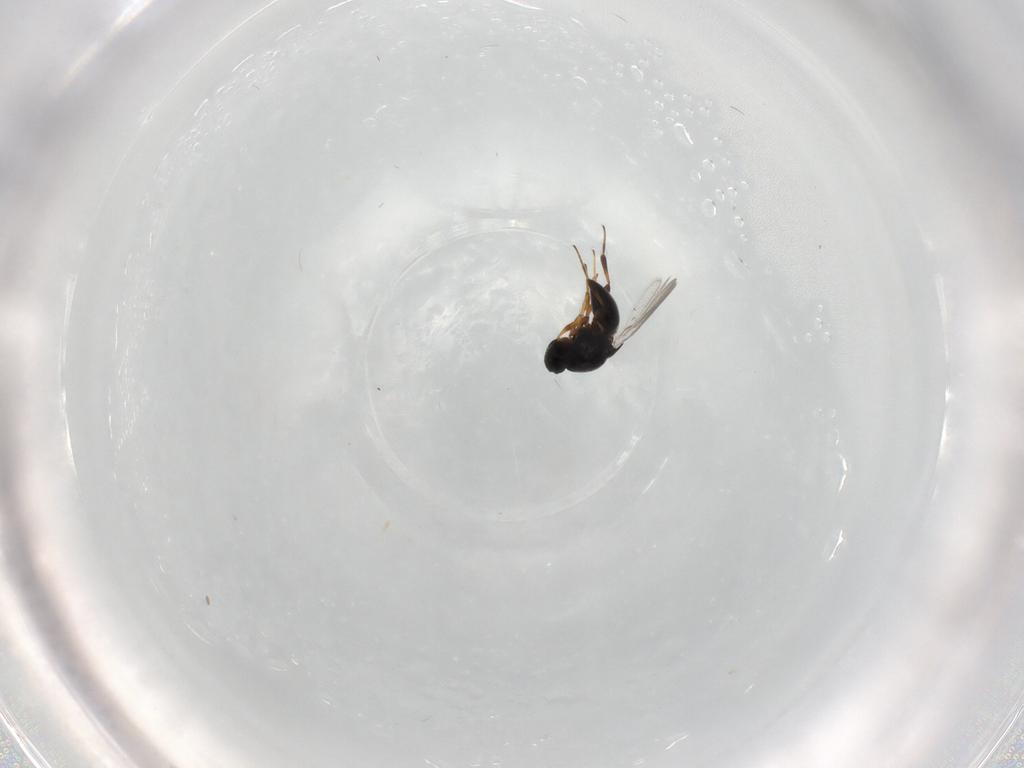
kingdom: Animalia
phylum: Arthropoda
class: Insecta
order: Hymenoptera
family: Platygastridae
